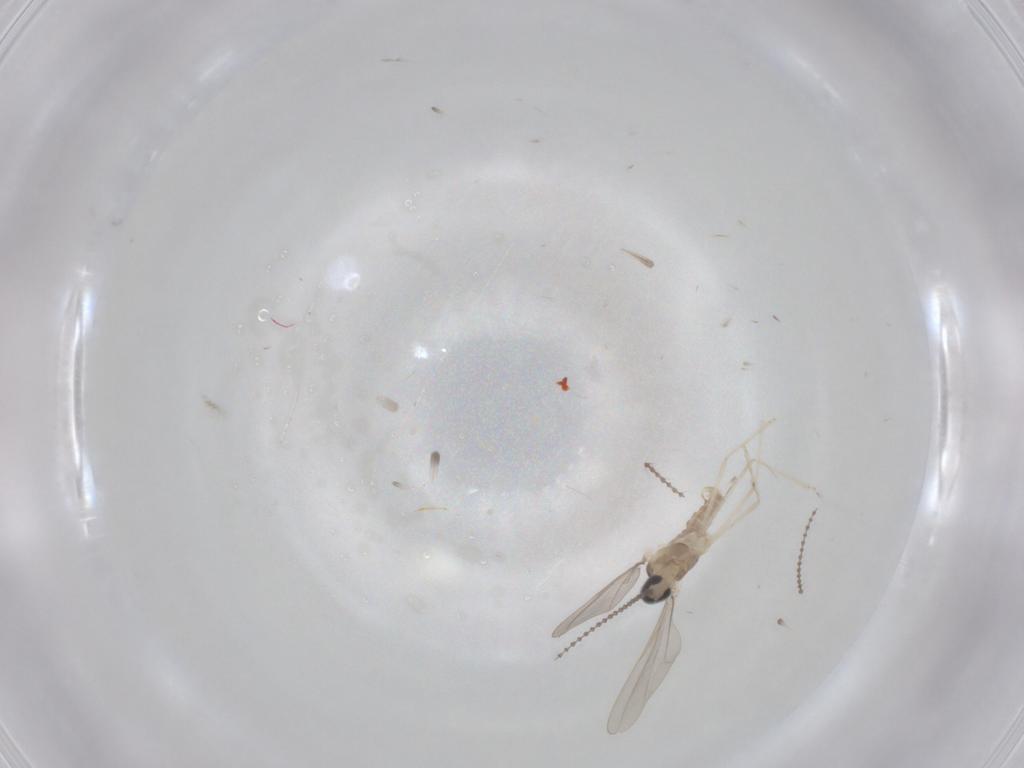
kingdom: Animalia
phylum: Arthropoda
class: Insecta
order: Diptera
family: Cecidomyiidae
